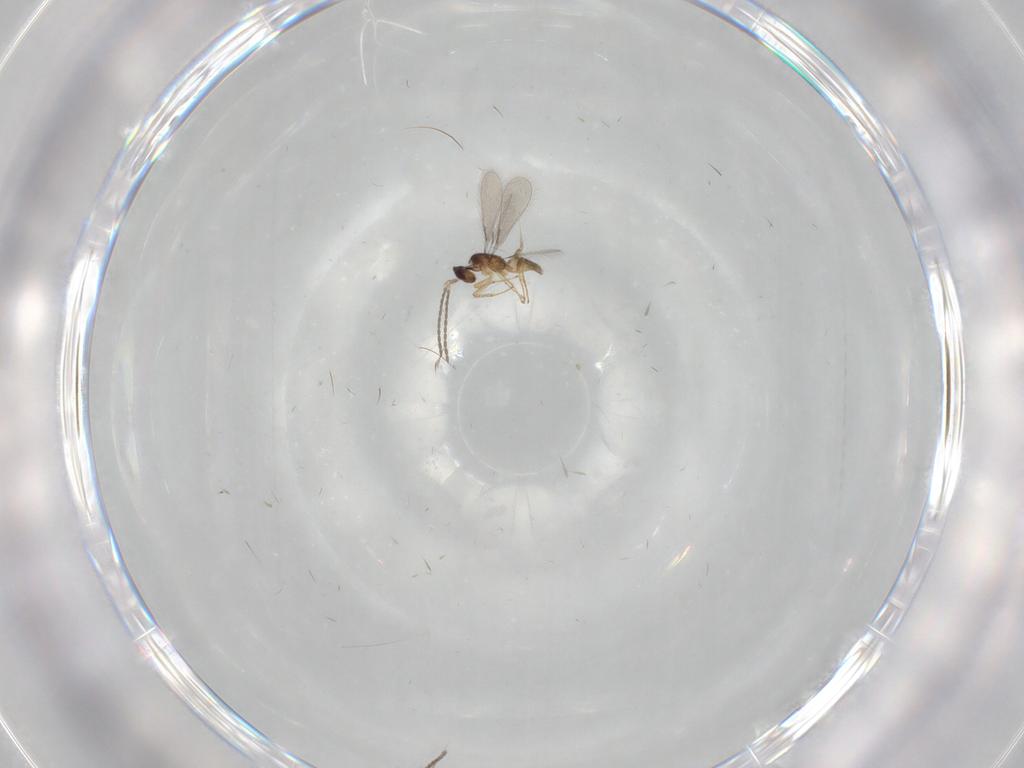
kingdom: Animalia
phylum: Arthropoda
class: Insecta
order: Hymenoptera
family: Mymaridae
